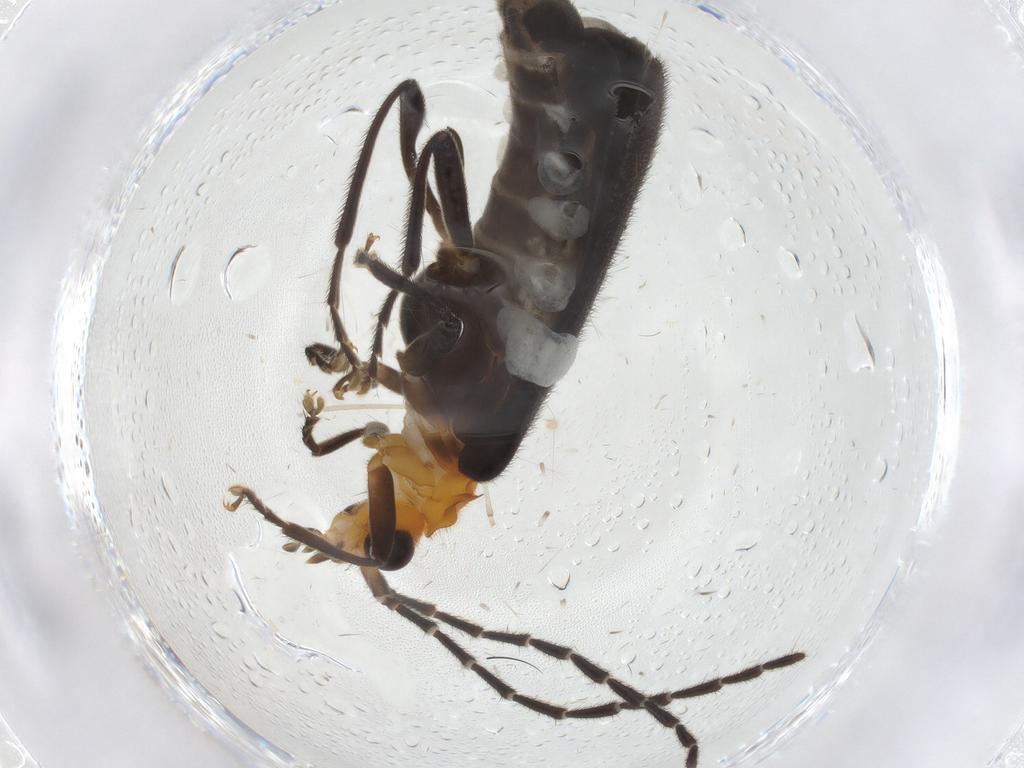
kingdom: Animalia
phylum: Arthropoda
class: Insecta
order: Coleoptera
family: Cantharidae
